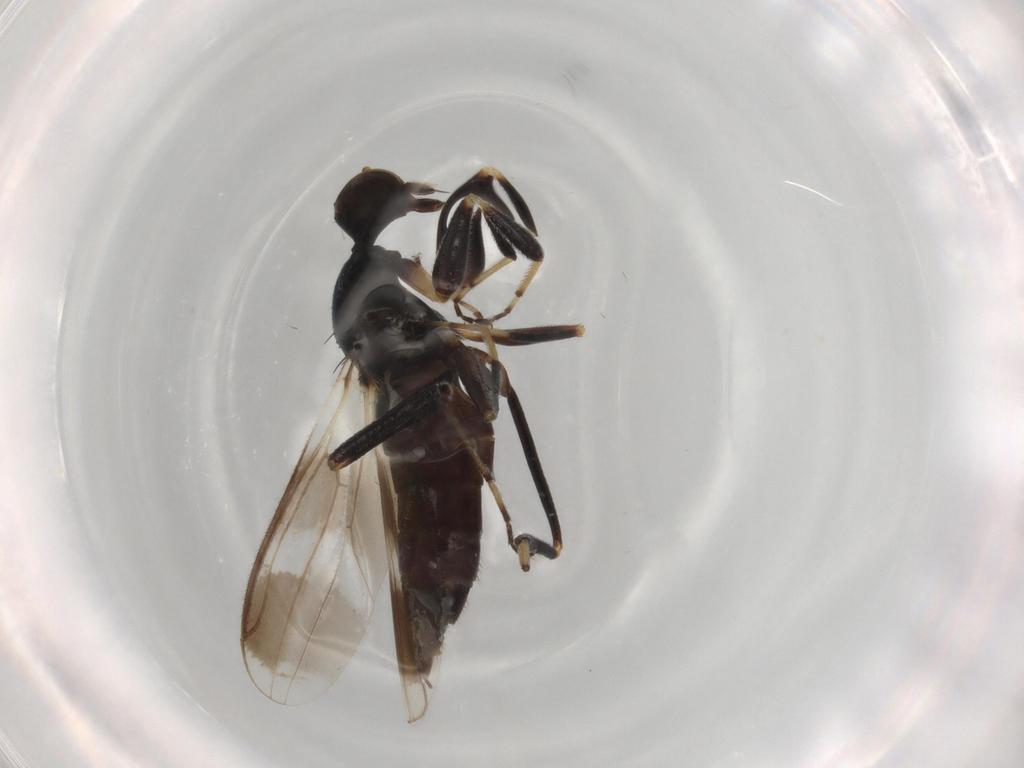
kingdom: Animalia
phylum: Arthropoda
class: Insecta
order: Diptera
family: Hybotidae
